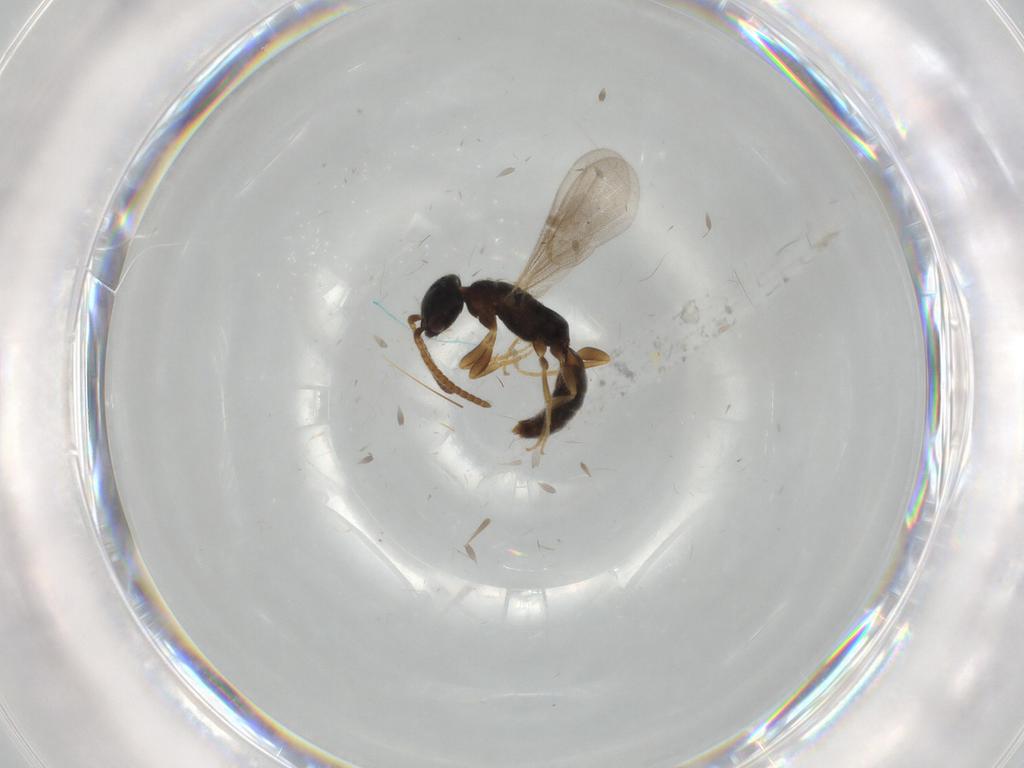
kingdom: Animalia
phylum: Arthropoda
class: Insecta
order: Hymenoptera
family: Bethylidae
